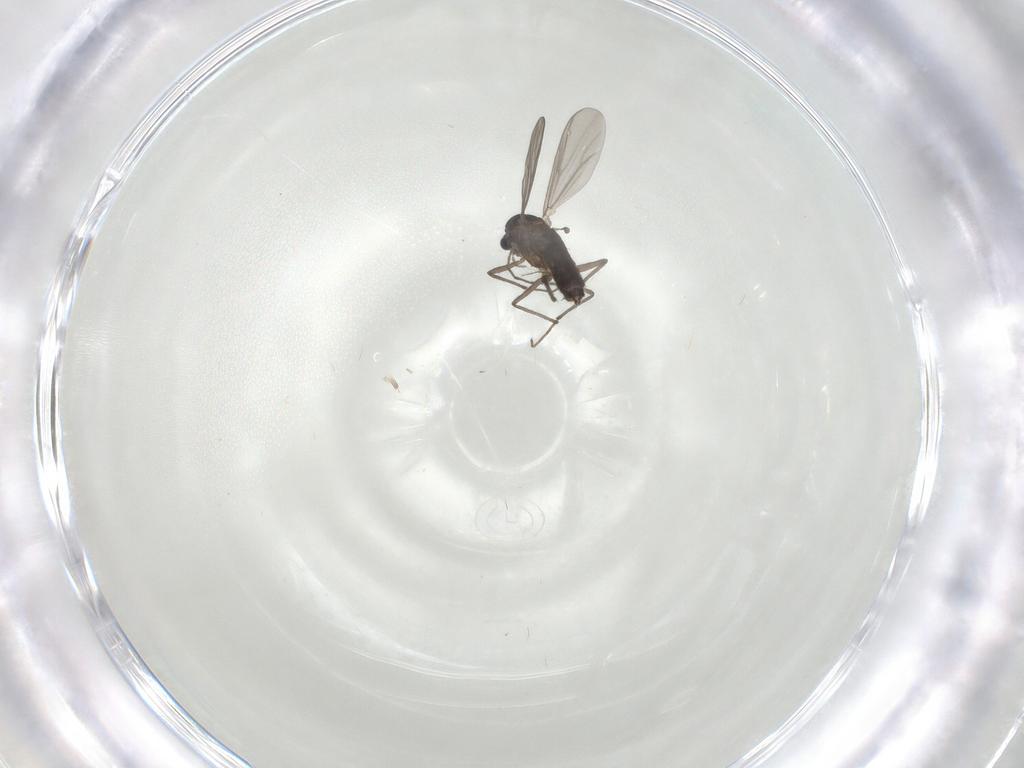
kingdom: Animalia
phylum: Arthropoda
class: Insecta
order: Diptera
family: Chironomidae
